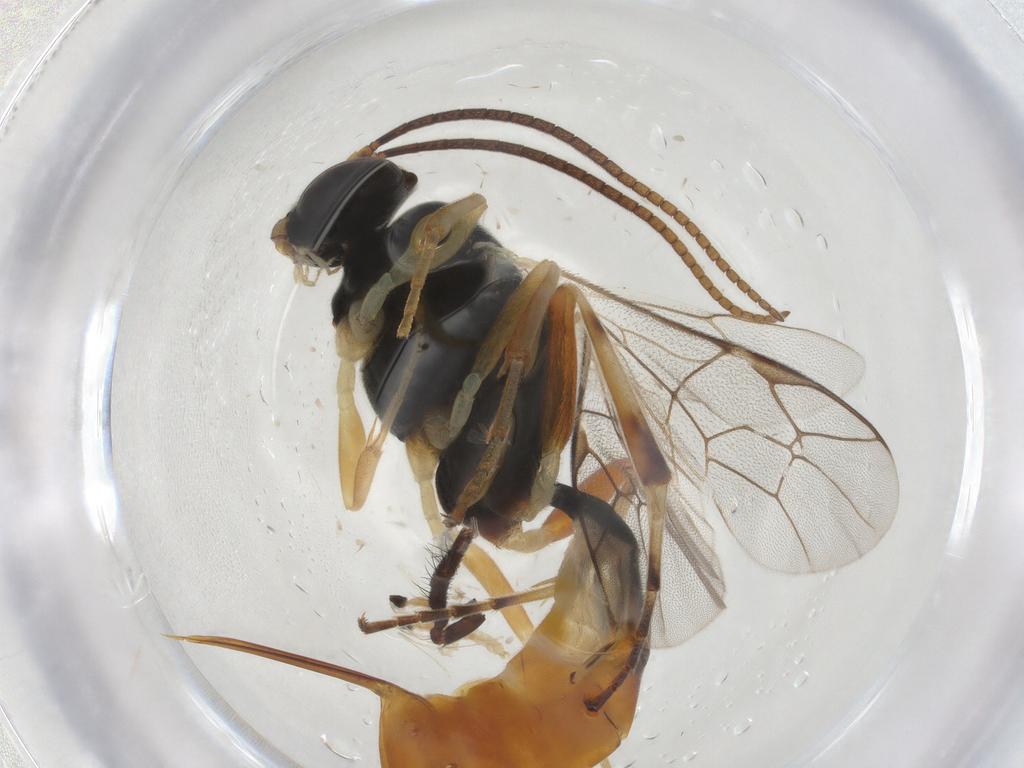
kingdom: Animalia
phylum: Arthropoda
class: Insecta
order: Hymenoptera
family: Ichneumonidae
